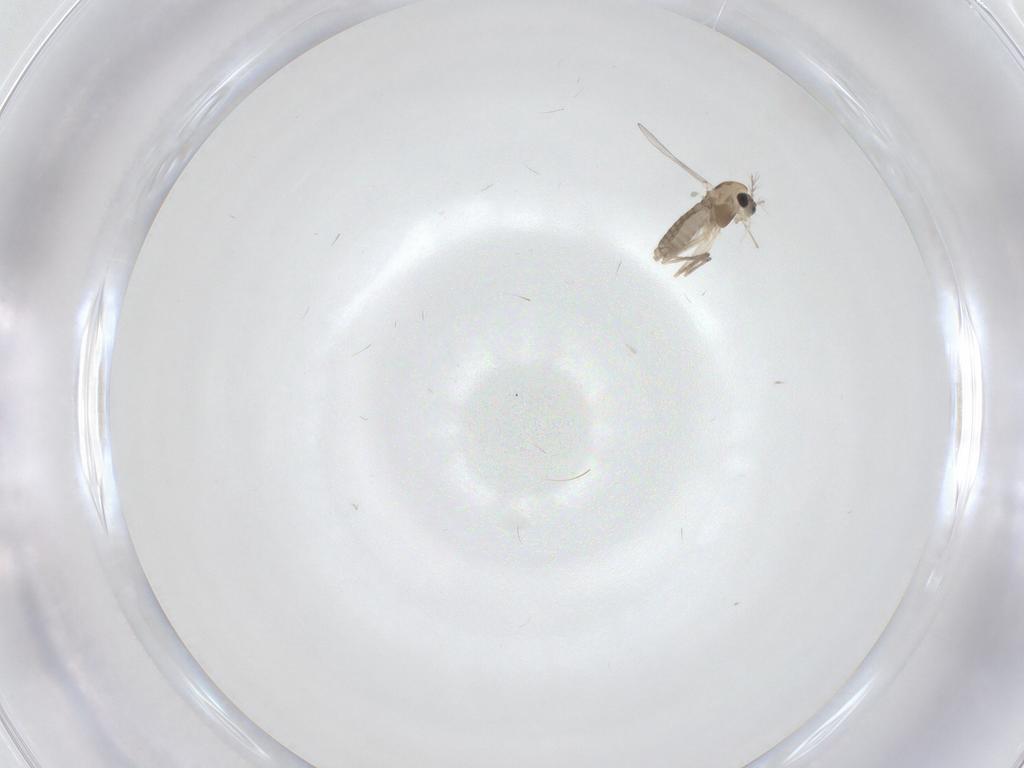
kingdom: Animalia
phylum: Arthropoda
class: Insecta
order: Diptera
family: Chironomidae
